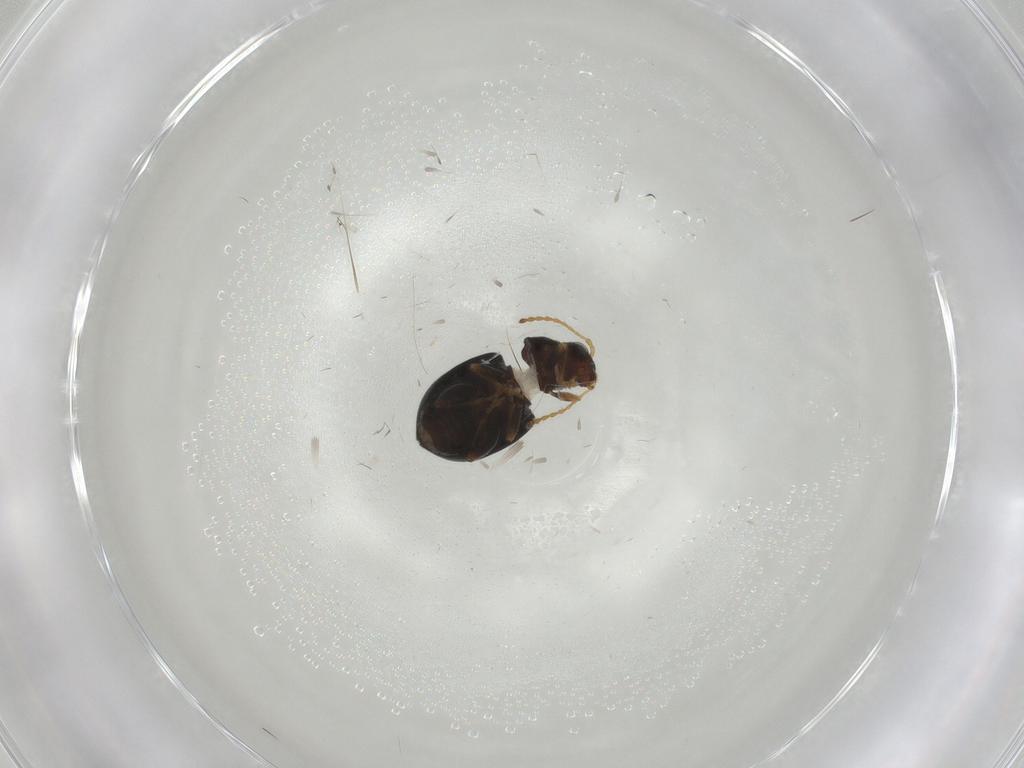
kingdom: Animalia
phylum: Arthropoda
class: Insecta
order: Coleoptera
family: Chrysomelidae
